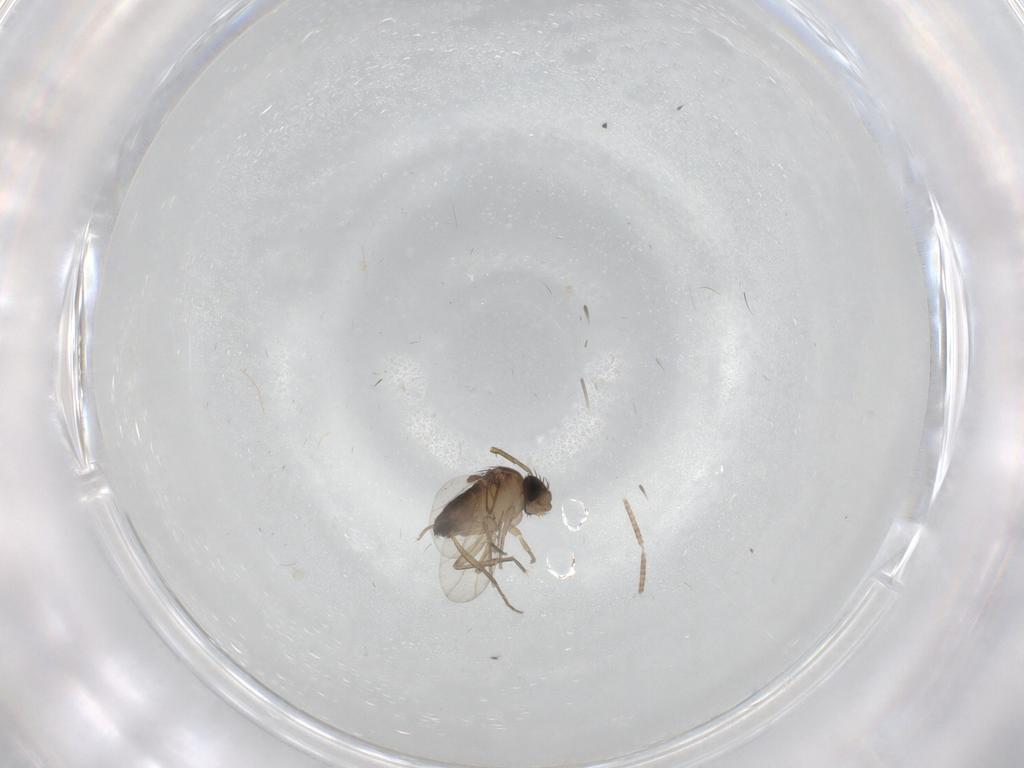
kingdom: Animalia
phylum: Arthropoda
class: Insecta
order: Diptera
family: Phoridae
